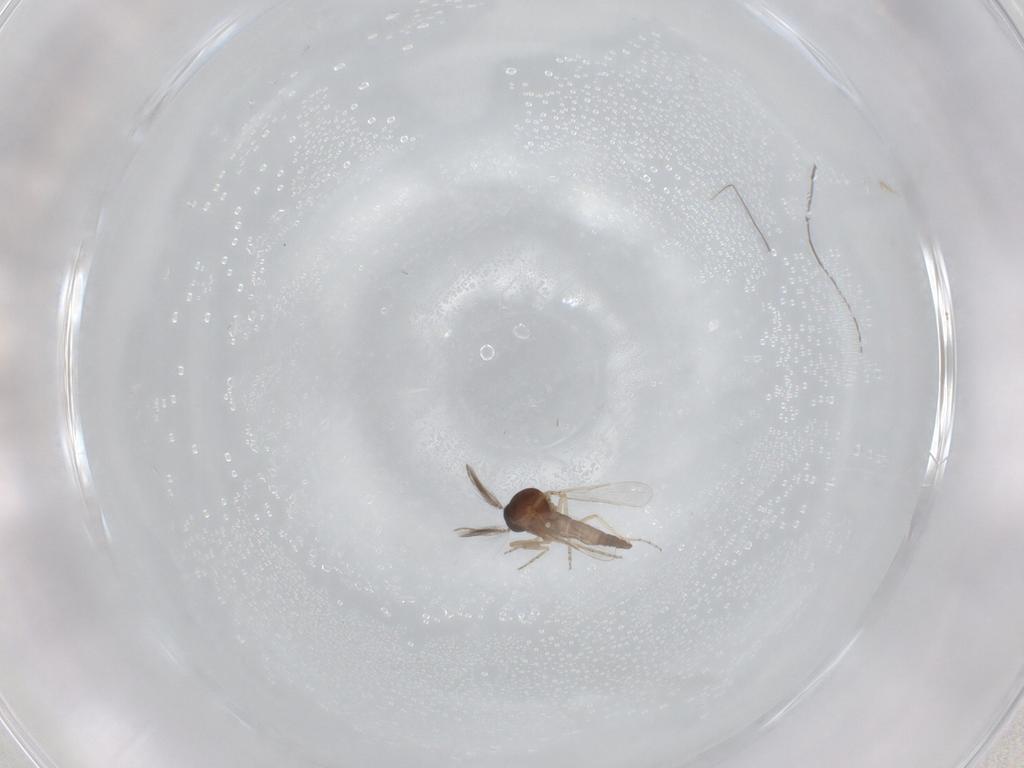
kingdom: Animalia
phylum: Arthropoda
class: Insecta
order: Diptera
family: Ceratopogonidae
